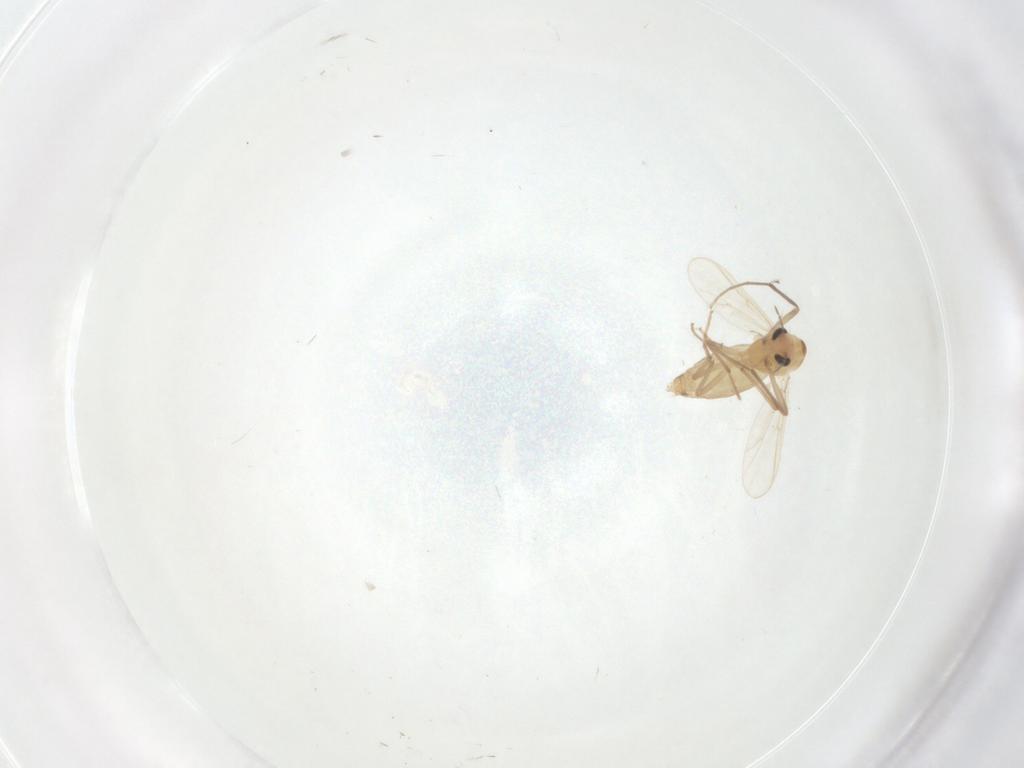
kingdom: Animalia
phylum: Arthropoda
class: Insecta
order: Diptera
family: Chironomidae
